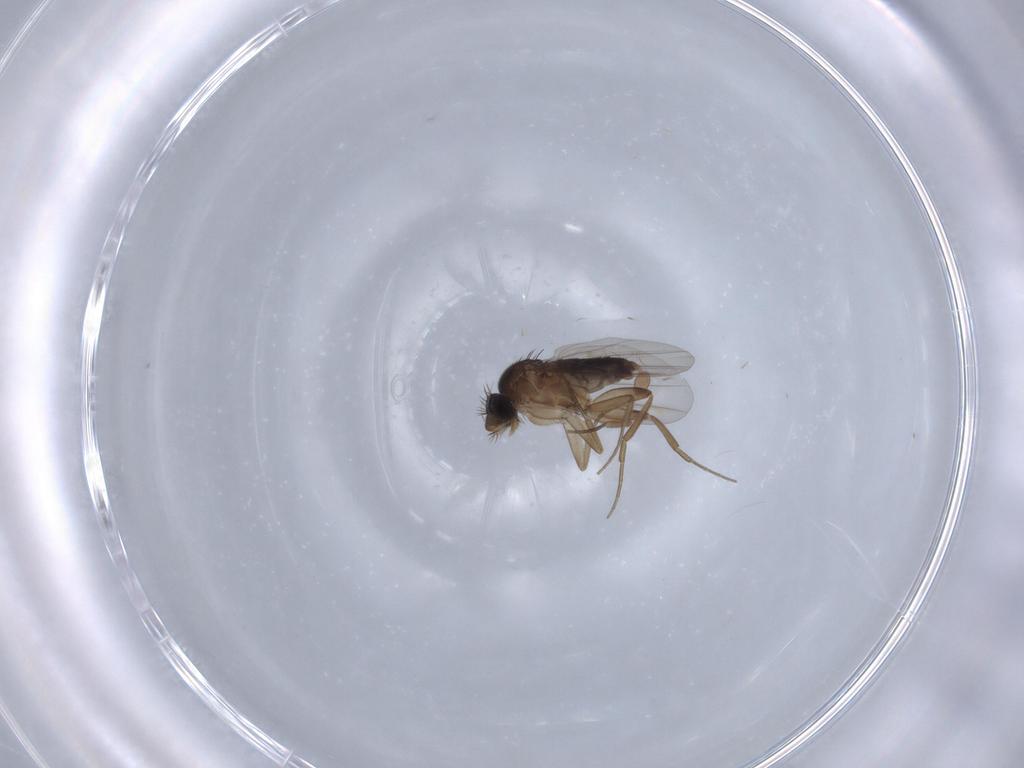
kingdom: Animalia
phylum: Arthropoda
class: Insecta
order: Diptera
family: Phoridae
